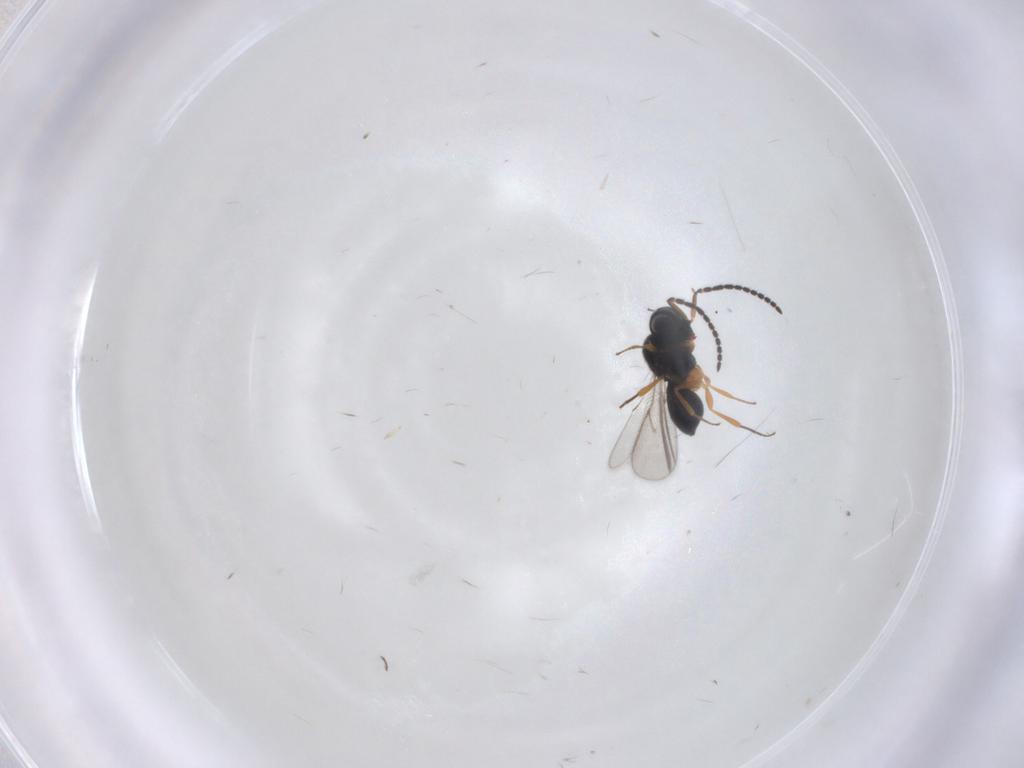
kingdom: Animalia
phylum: Arthropoda
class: Insecta
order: Hymenoptera
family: Scelionidae
